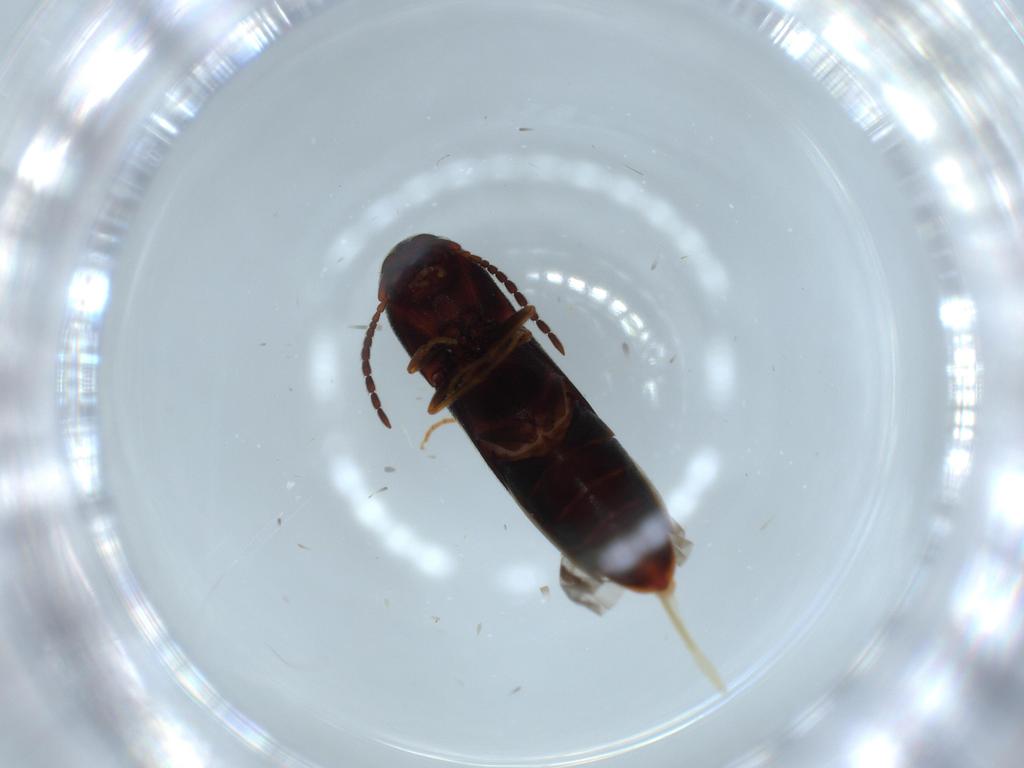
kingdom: Animalia
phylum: Arthropoda
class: Insecta
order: Coleoptera
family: Eucnemidae
